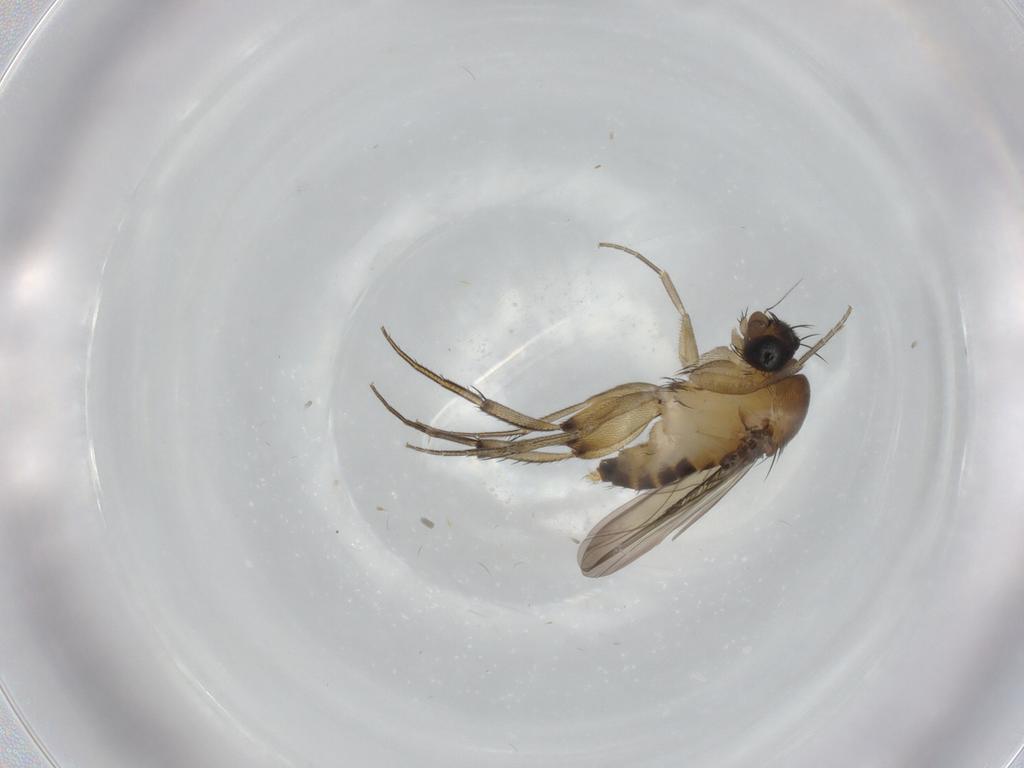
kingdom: Animalia
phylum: Arthropoda
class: Insecta
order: Diptera
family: Phoridae
